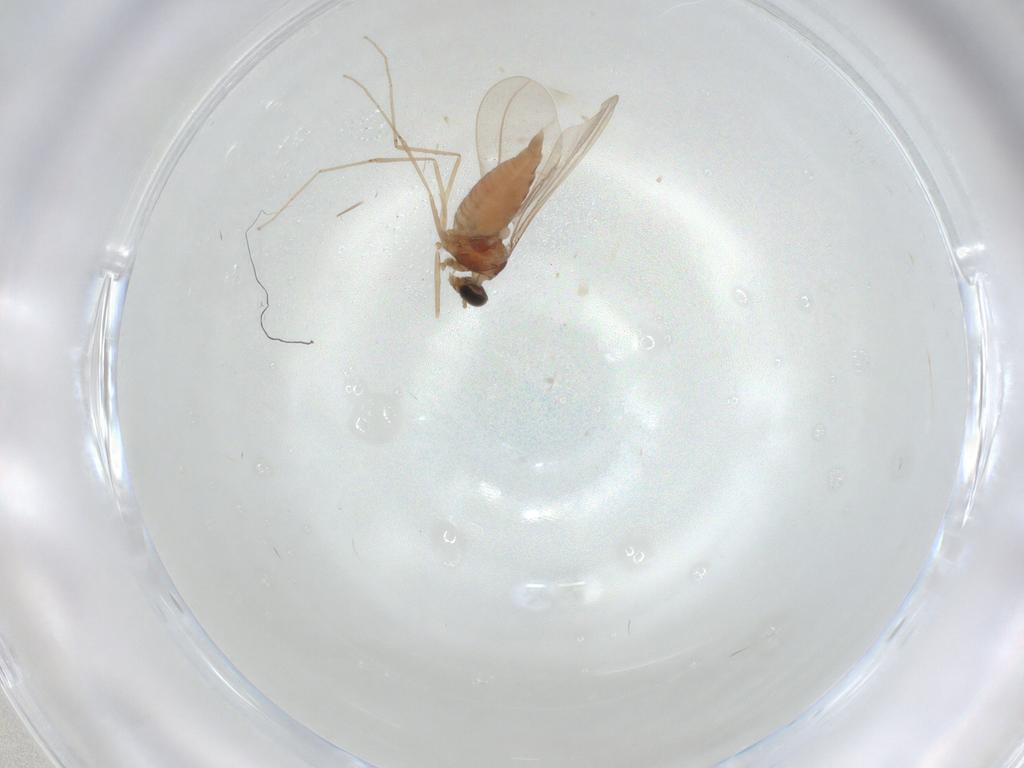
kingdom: Animalia
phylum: Arthropoda
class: Insecta
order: Diptera
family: Cecidomyiidae
